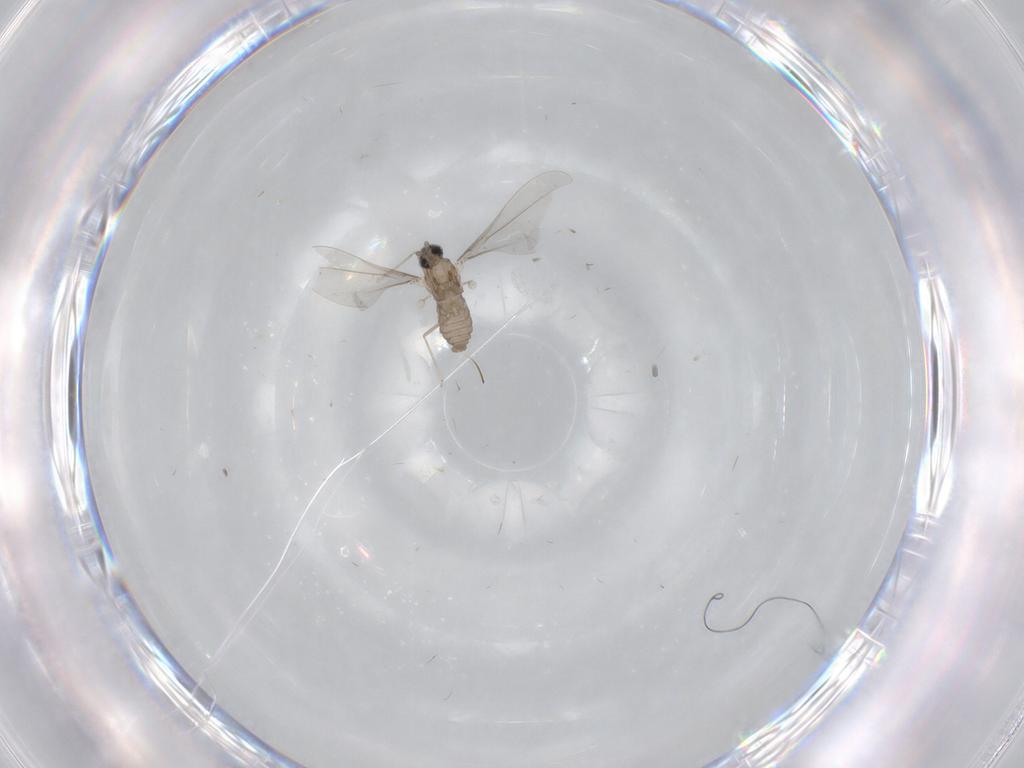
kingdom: Animalia
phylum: Arthropoda
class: Insecta
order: Diptera
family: Cecidomyiidae
